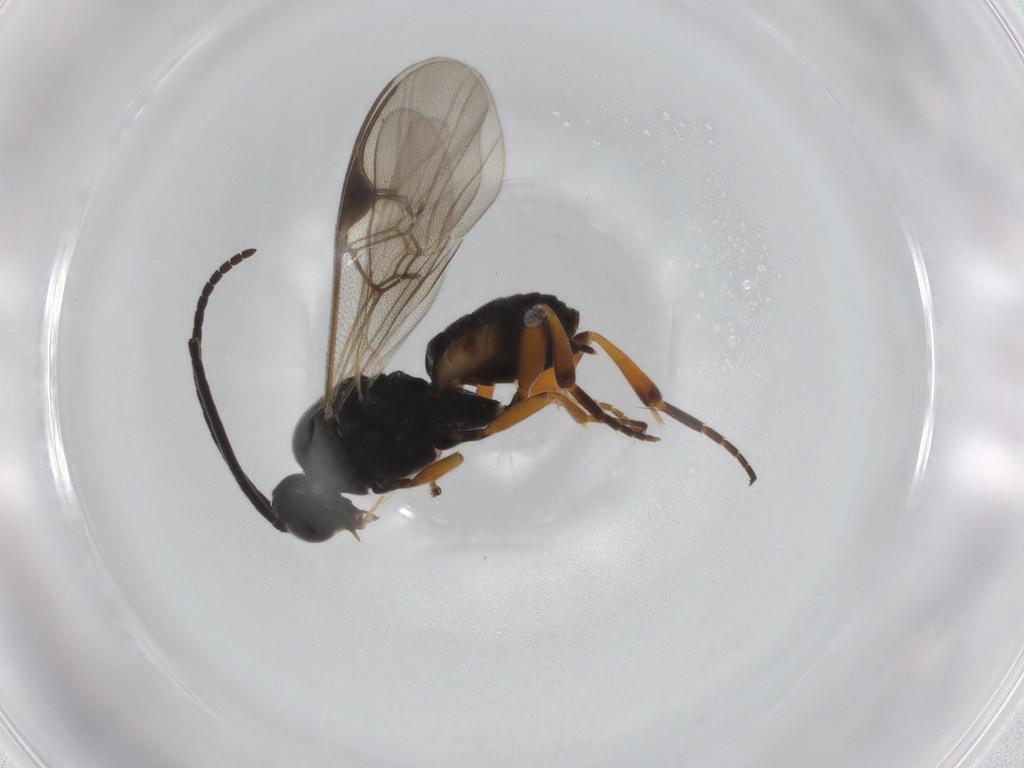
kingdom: Animalia
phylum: Arthropoda
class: Insecta
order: Hymenoptera
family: Braconidae
